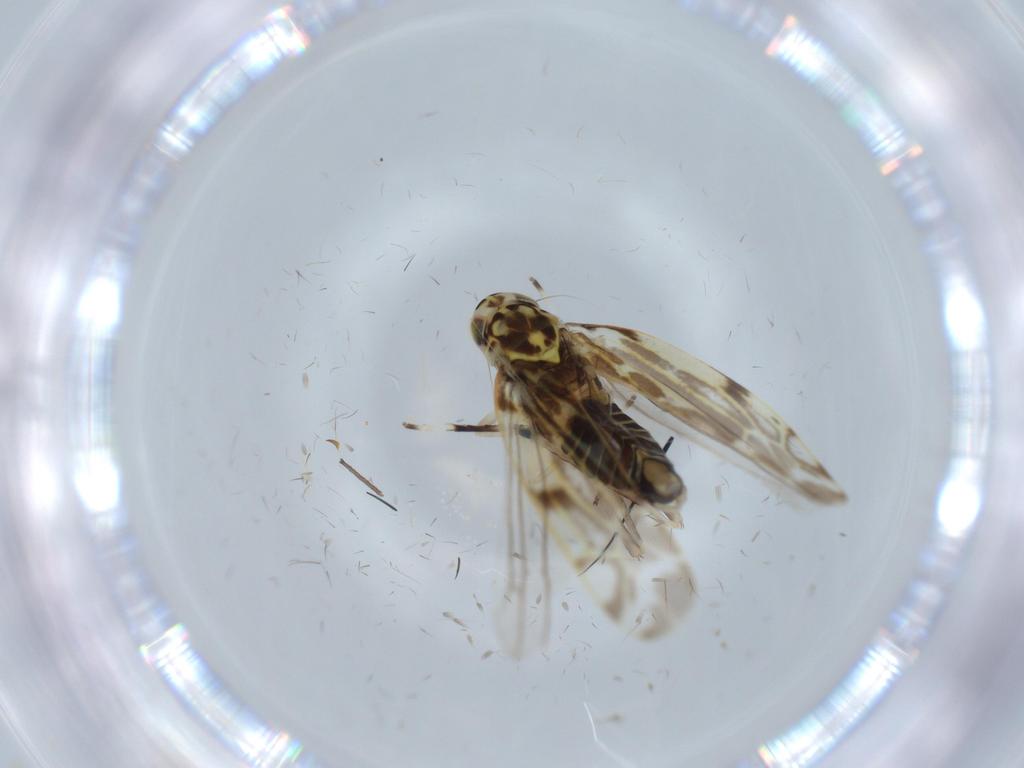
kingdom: Animalia
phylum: Arthropoda
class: Insecta
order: Hemiptera
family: Cicadellidae
